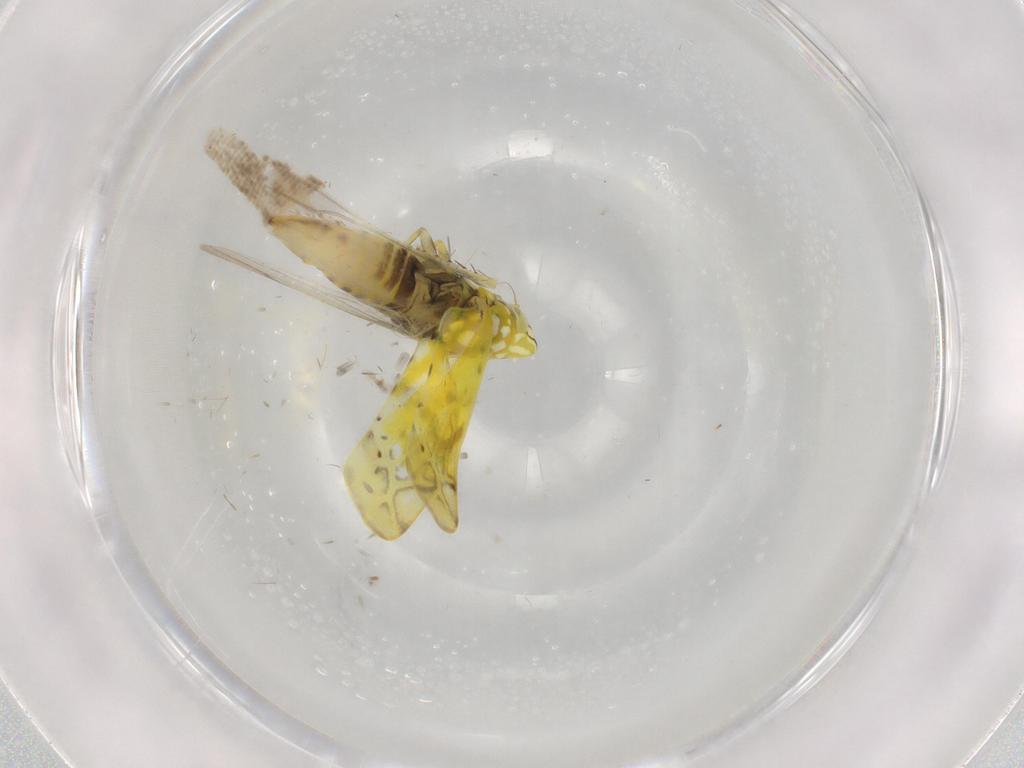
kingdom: Animalia
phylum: Arthropoda
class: Insecta
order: Hemiptera
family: Cicadellidae
